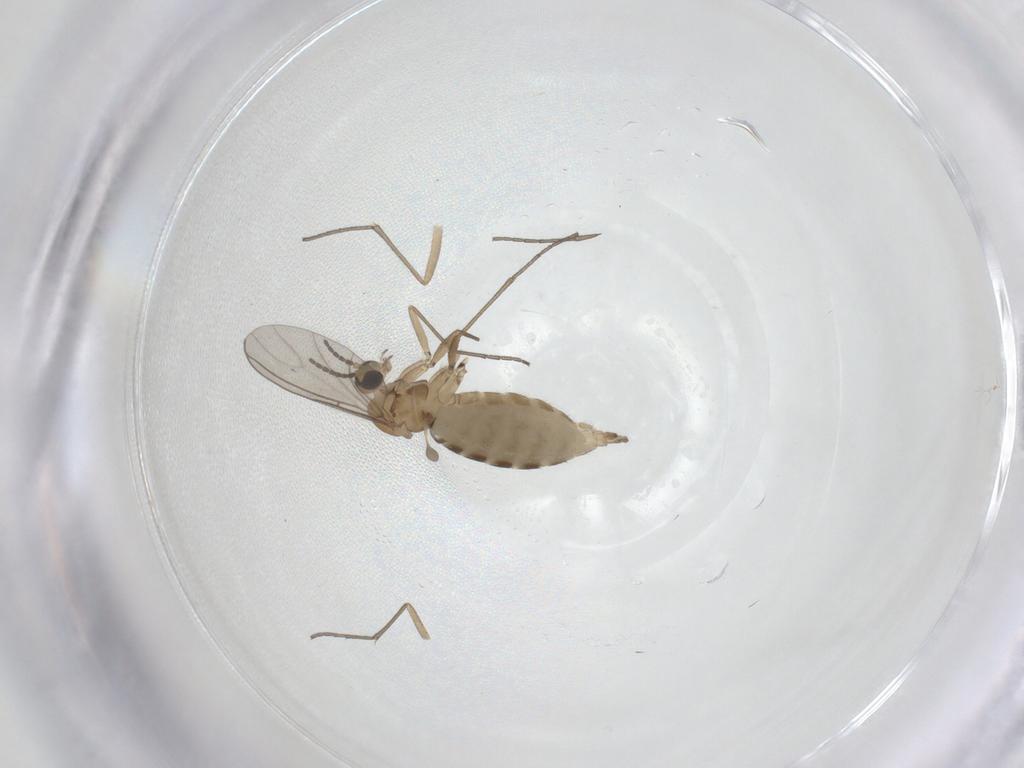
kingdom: Animalia
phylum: Arthropoda
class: Insecta
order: Diptera
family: Sciaridae
